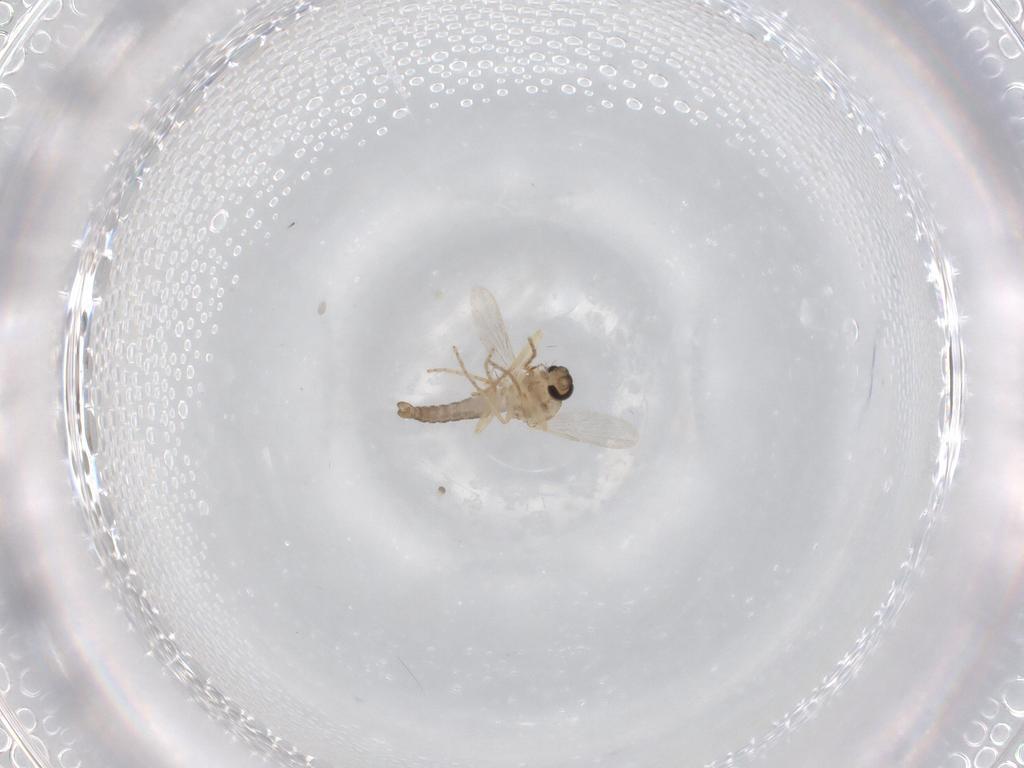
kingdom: Animalia
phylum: Arthropoda
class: Insecta
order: Diptera
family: Ceratopogonidae
